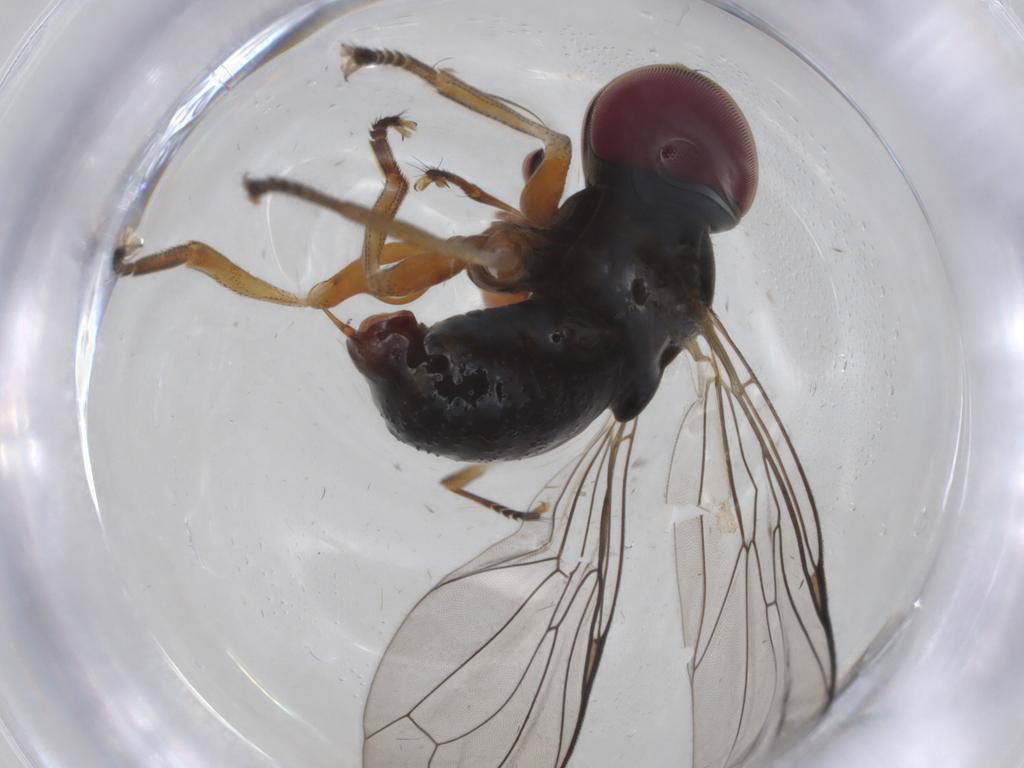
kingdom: Animalia
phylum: Arthropoda
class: Insecta
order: Diptera
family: Pipunculidae
